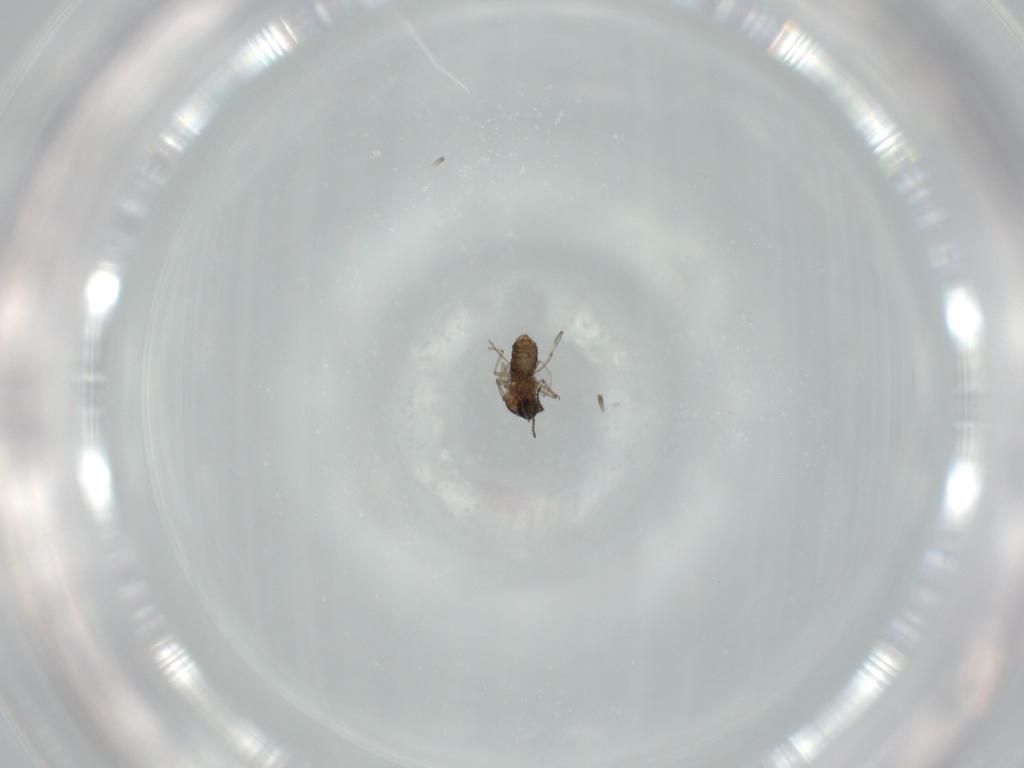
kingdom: Animalia
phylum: Arthropoda
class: Insecta
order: Diptera
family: Ceratopogonidae
